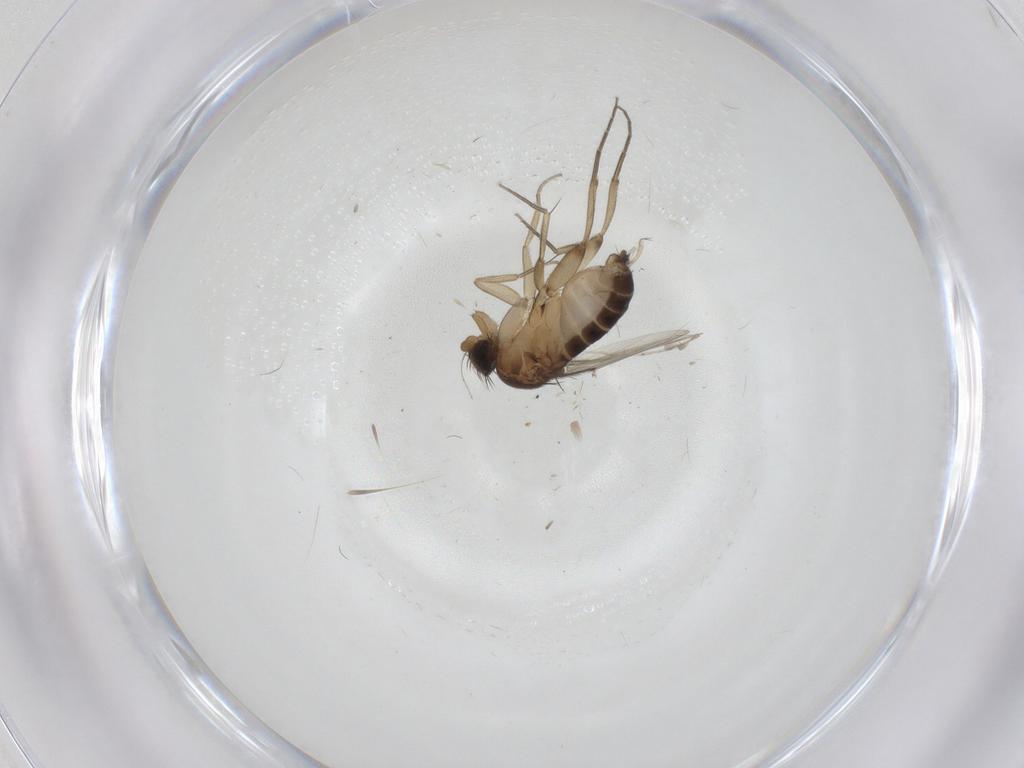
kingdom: Animalia
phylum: Arthropoda
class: Insecta
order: Diptera
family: Phoridae
